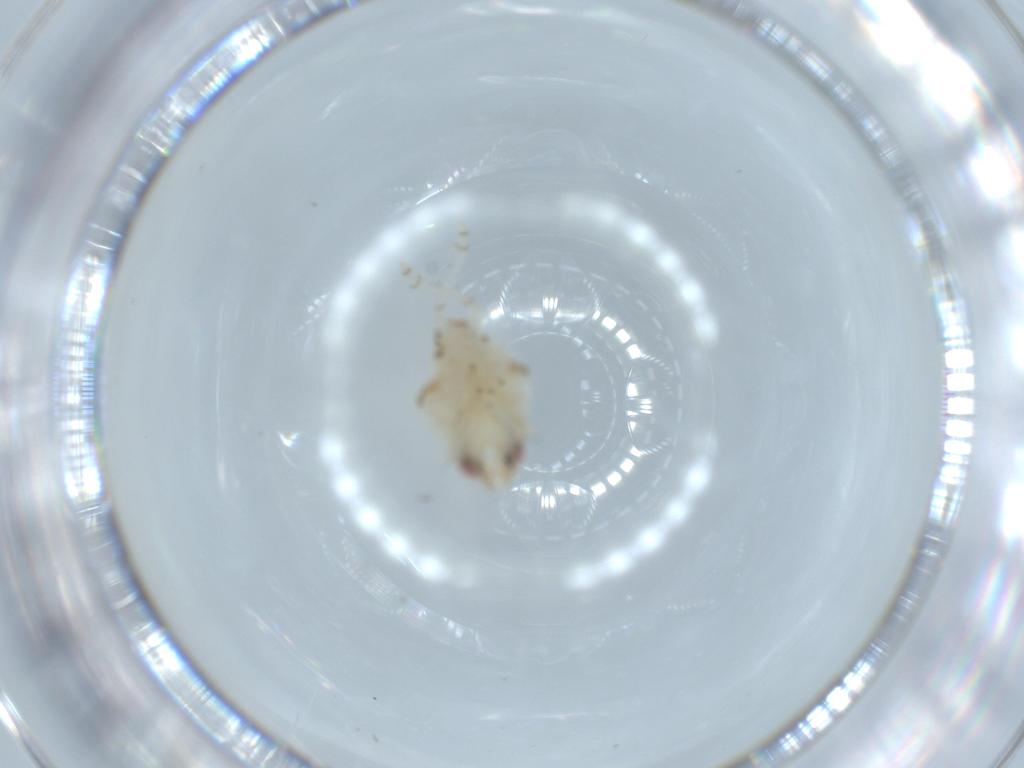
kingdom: Animalia
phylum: Arthropoda
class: Insecta
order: Hemiptera
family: Nogodinidae
